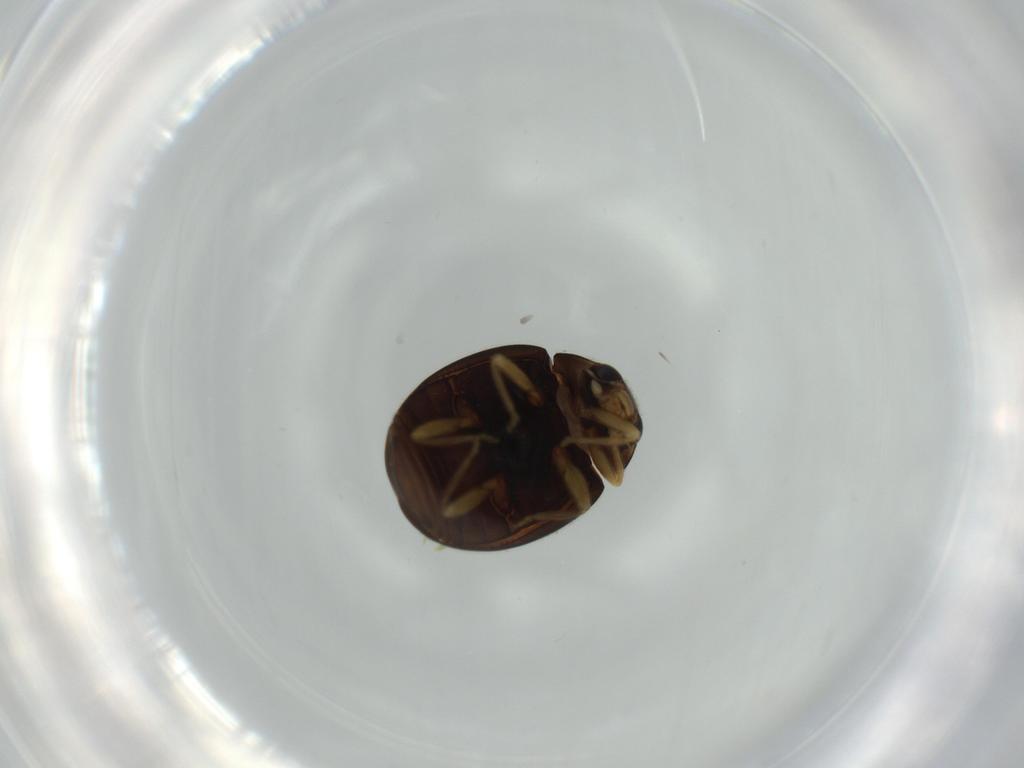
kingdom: Animalia
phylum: Arthropoda
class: Insecta
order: Coleoptera
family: Coccinellidae
